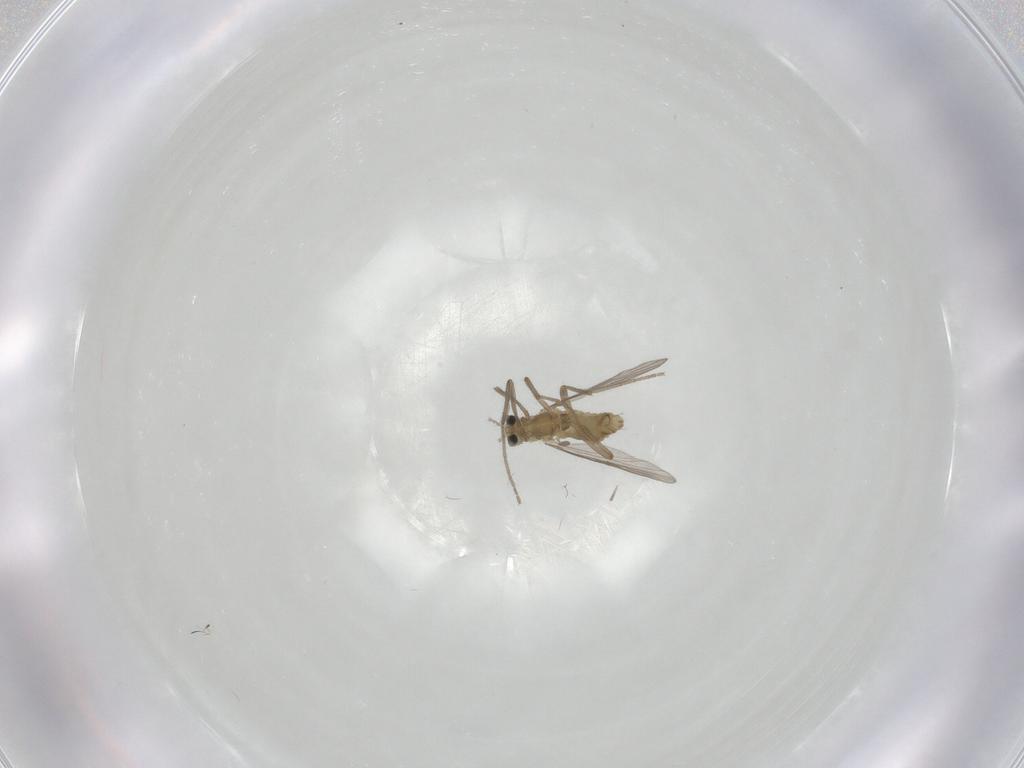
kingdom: Animalia
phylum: Arthropoda
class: Insecta
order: Diptera
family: Chironomidae
